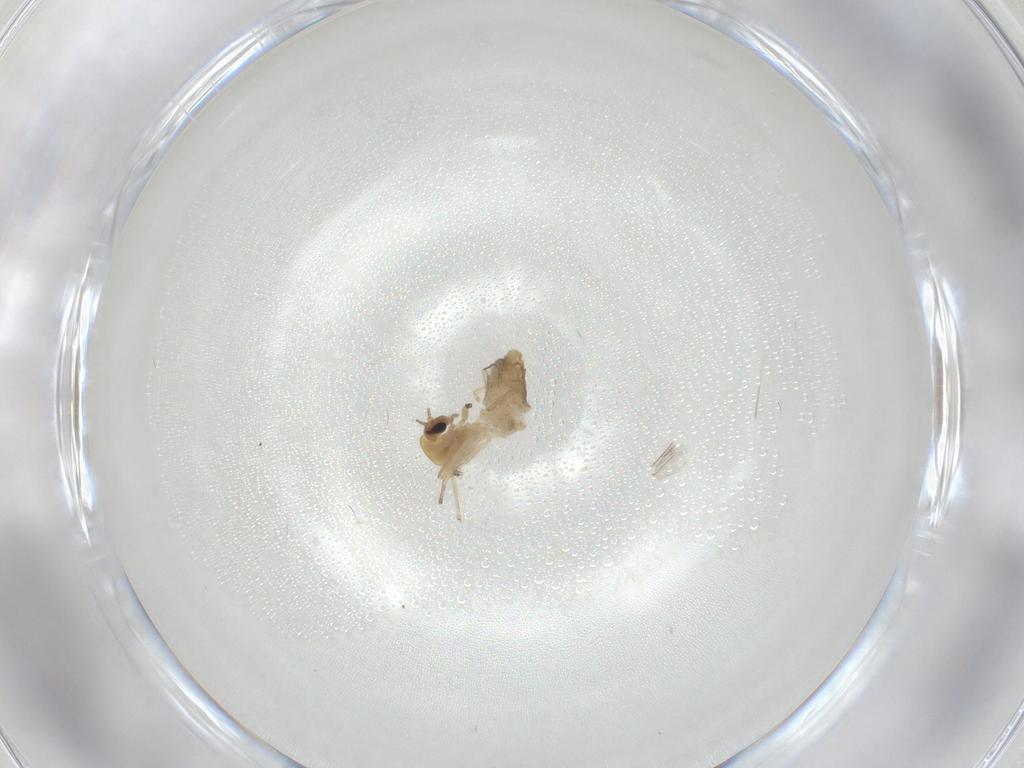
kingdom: Animalia
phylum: Arthropoda
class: Insecta
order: Diptera
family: Chironomidae
